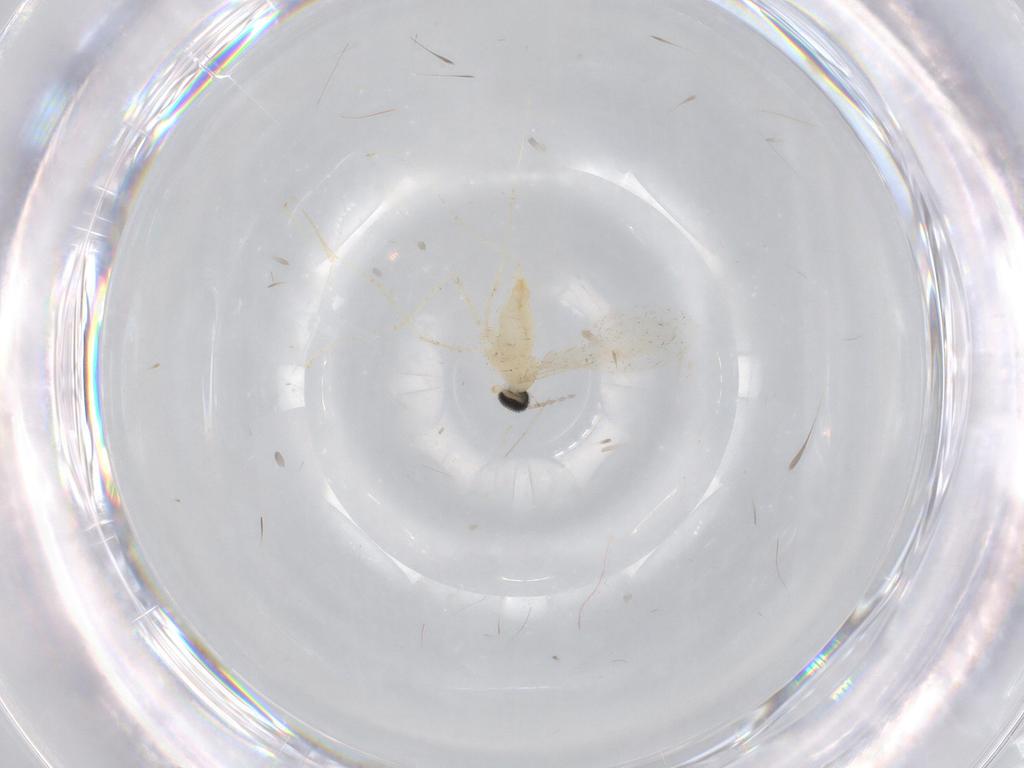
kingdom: Animalia
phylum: Arthropoda
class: Insecta
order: Diptera
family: Cecidomyiidae
